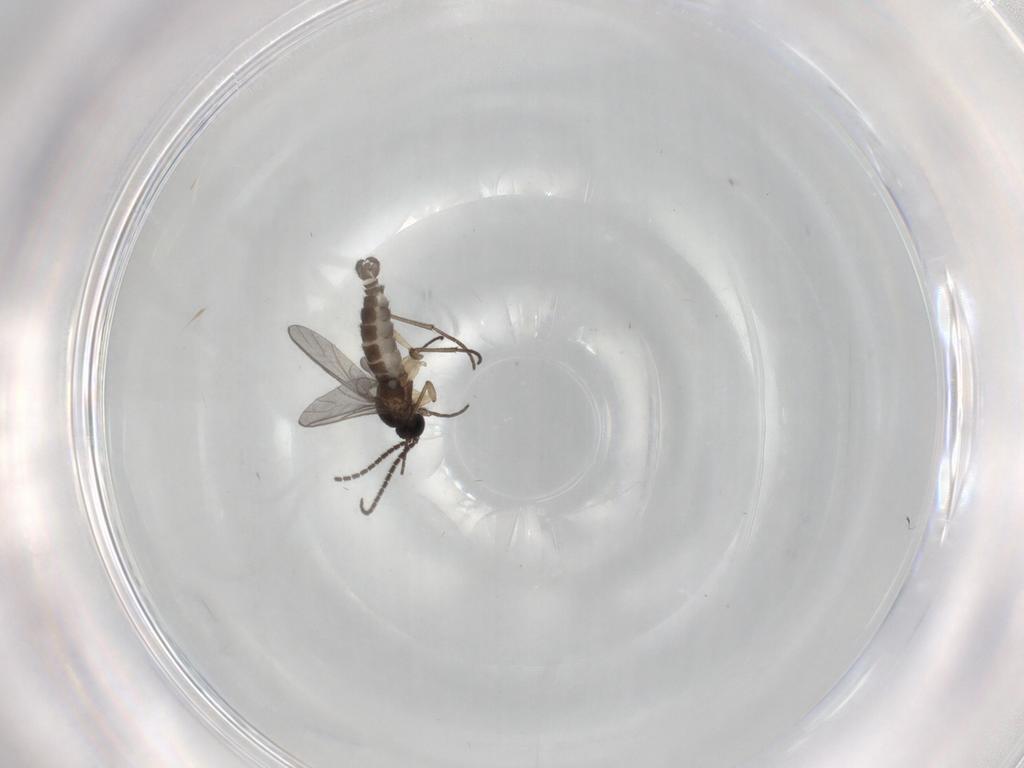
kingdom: Animalia
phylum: Arthropoda
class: Insecta
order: Diptera
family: Sciaridae
